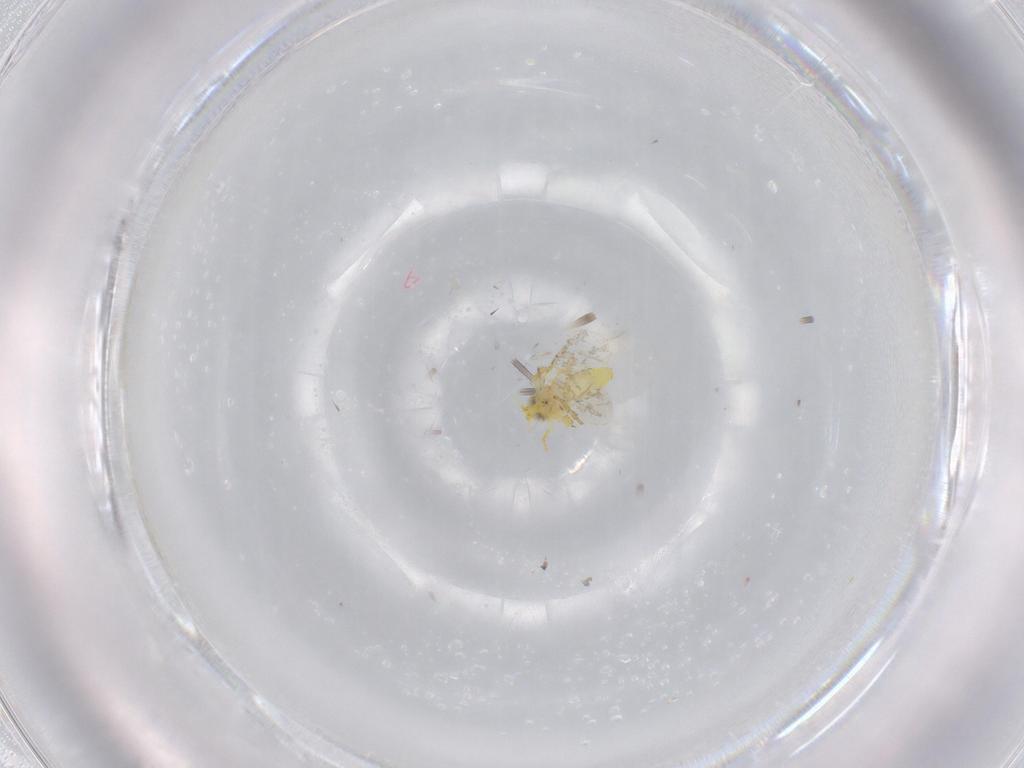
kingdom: Animalia
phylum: Arthropoda
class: Insecta
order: Hemiptera
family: Aleyrodidae
